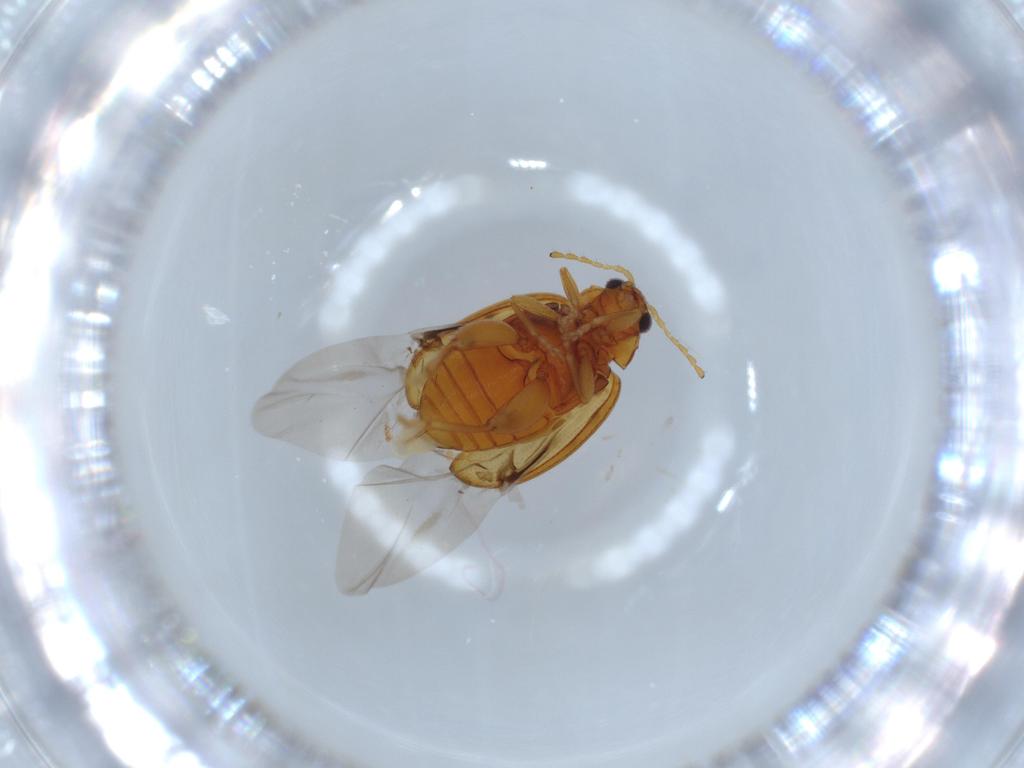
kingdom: Animalia
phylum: Arthropoda
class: Insecta
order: Coleoptera
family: Chrysomelidae
